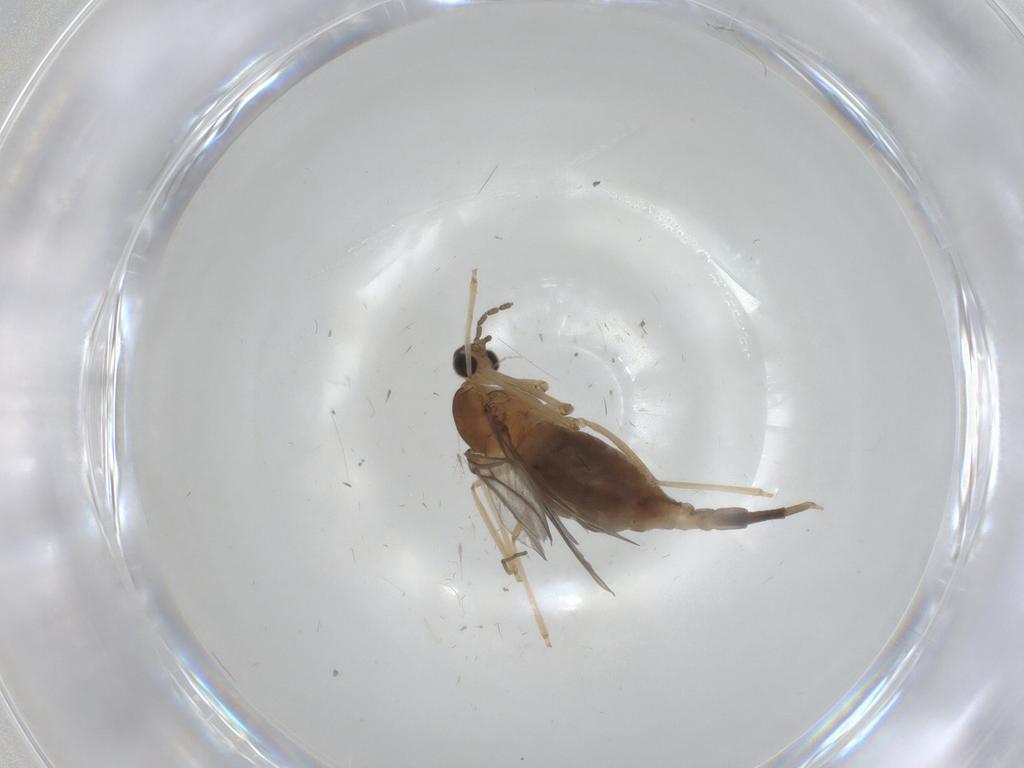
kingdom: Animalia
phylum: Arthropoda
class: Insecta
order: Diptera
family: Cecidomyiidae
